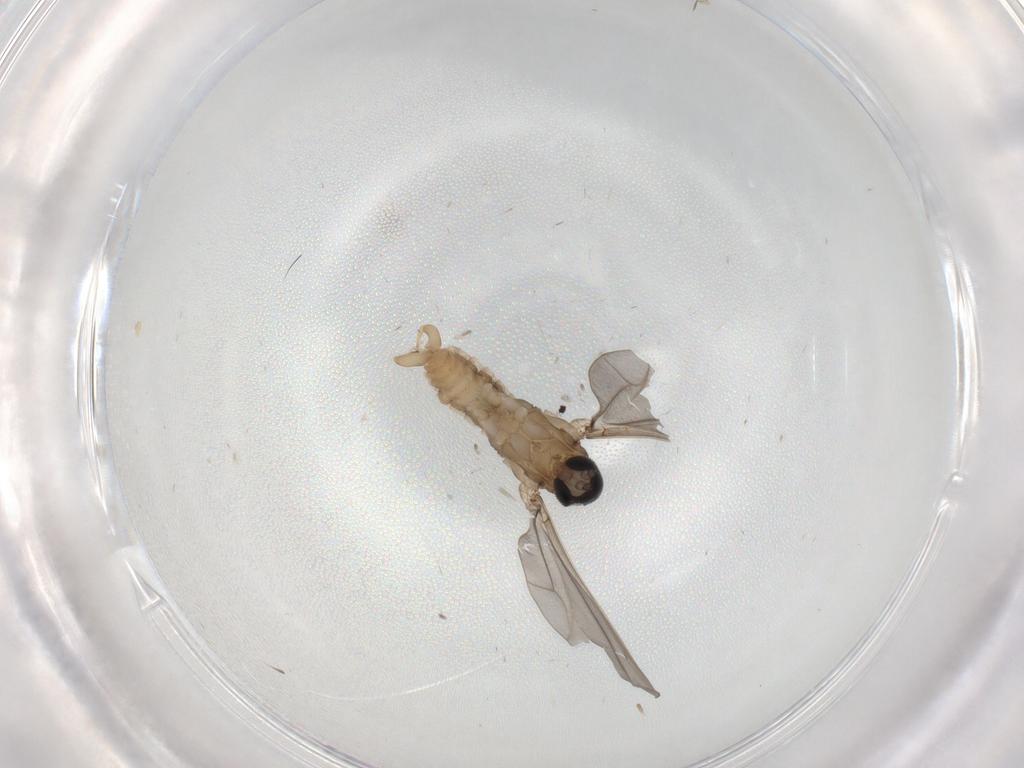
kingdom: Animalia
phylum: Arthropoda
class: Insecta
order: Diptera
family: Cecidomyiidae
